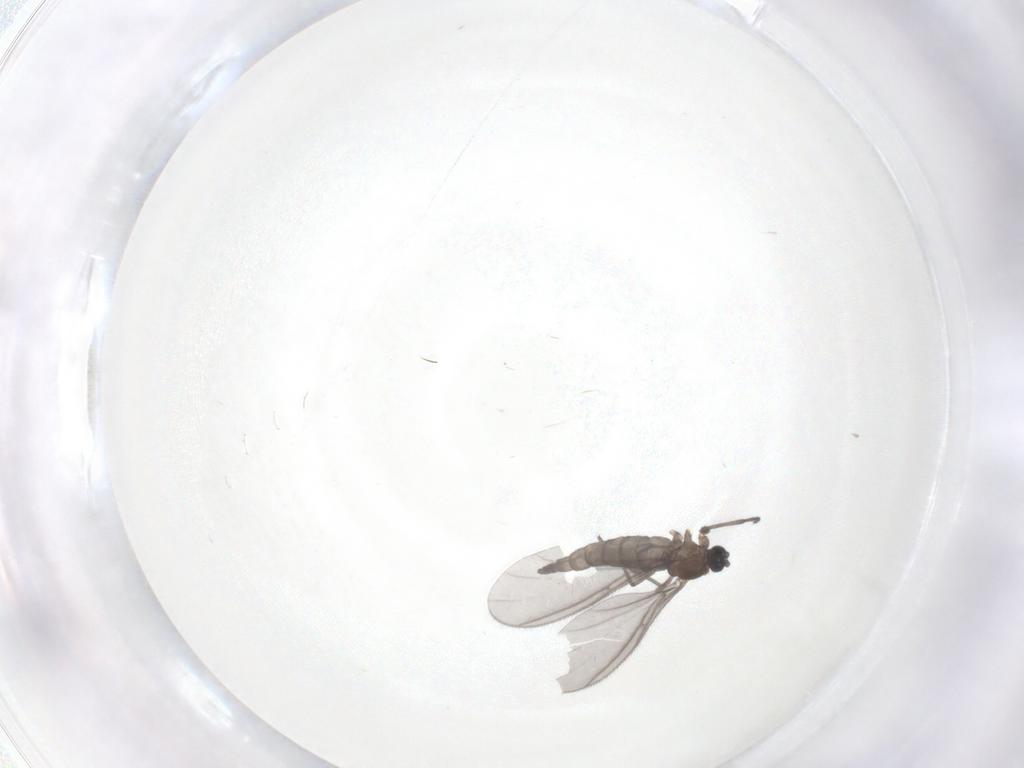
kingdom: Animalia
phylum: Arthropoda
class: Insecta
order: Diptera
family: Sciaridae
